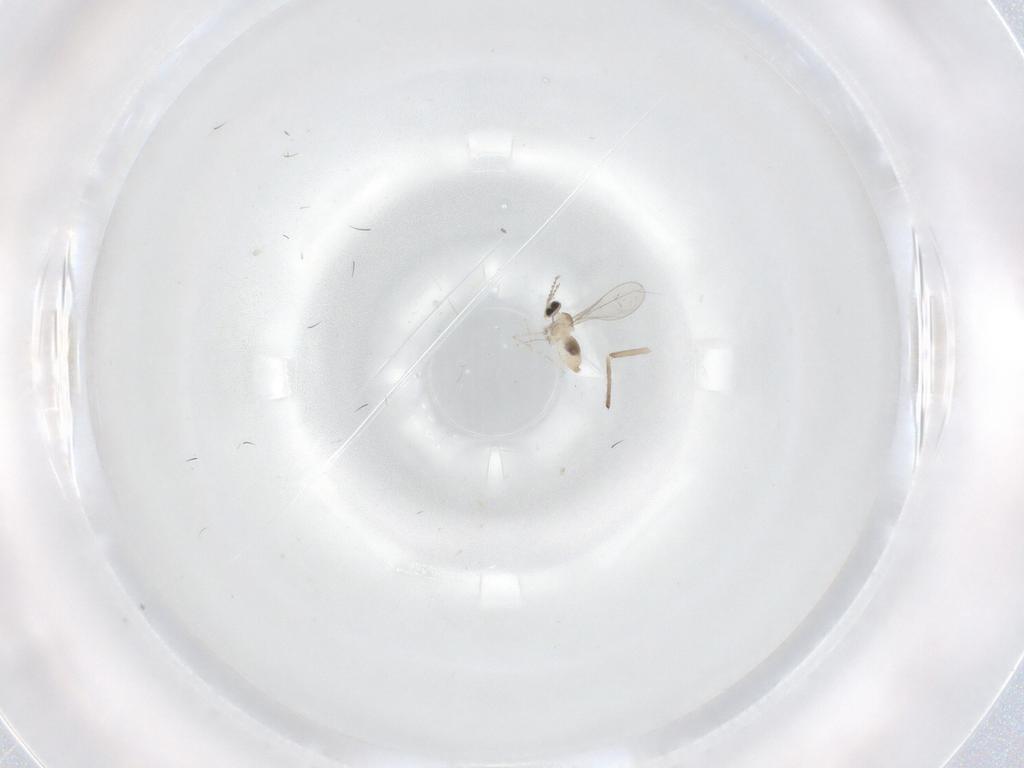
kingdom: Animalia
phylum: Arthropoda
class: Insecta
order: Diptera
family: Cecidomyiidae
